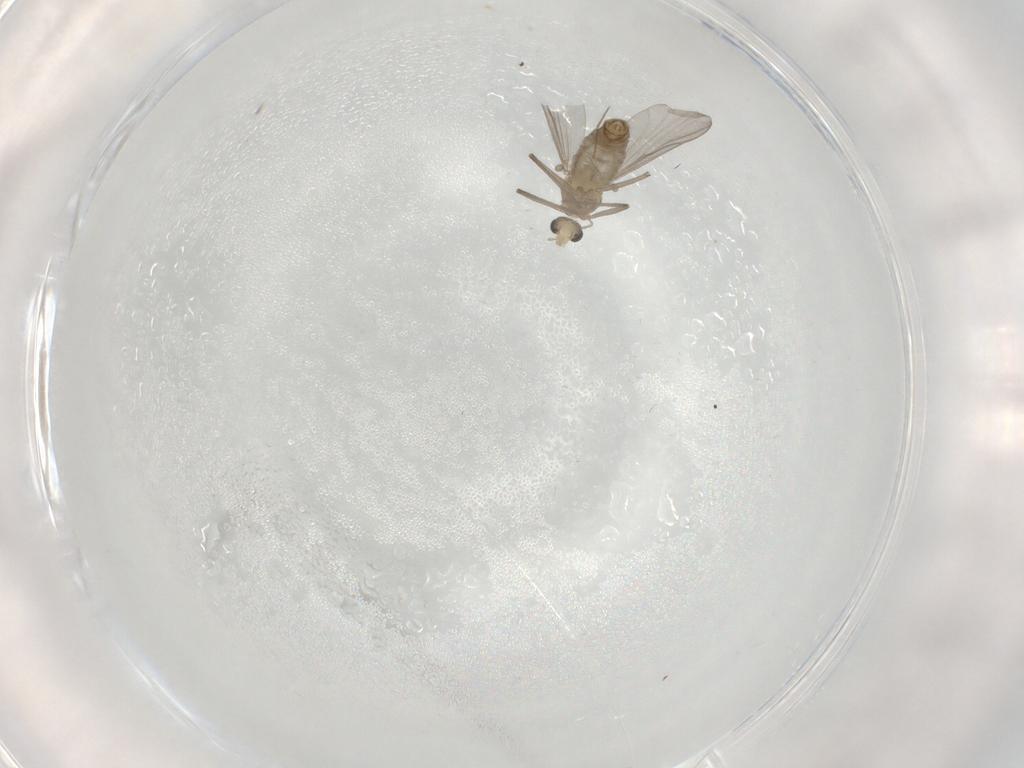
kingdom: Animalia
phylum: Arthropoda
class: Insecta
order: Diptera
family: Chironomidae
